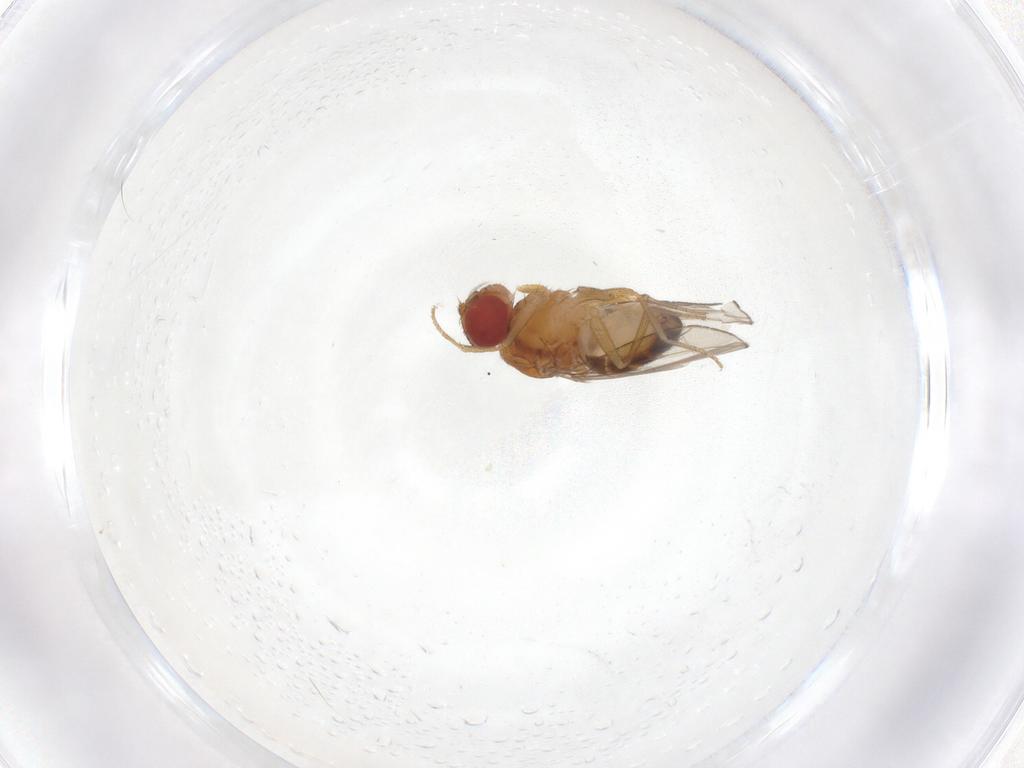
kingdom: Animalia
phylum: Arthropoda
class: Insecta
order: Diptera
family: Drosophilidae
